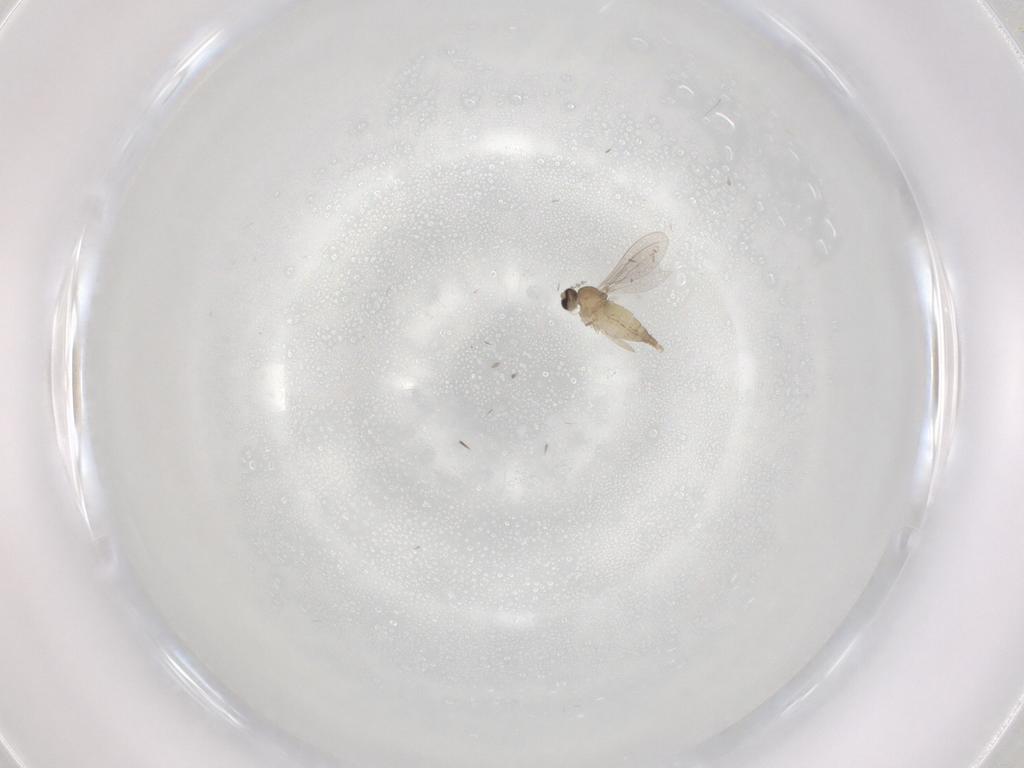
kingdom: Animalia
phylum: Arthropoda
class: Insecta
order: Diptera
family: Cecidomyiidae
